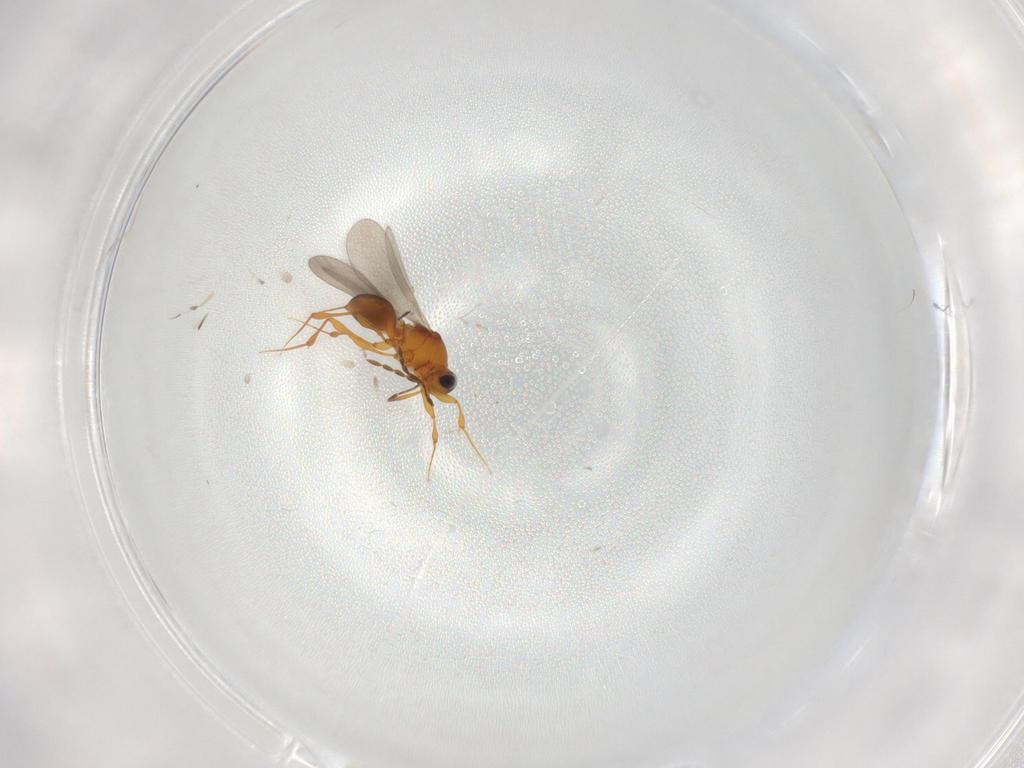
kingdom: Animalia
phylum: Arthropoda
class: Insecta
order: Hymenoptera
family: Platygastridae
